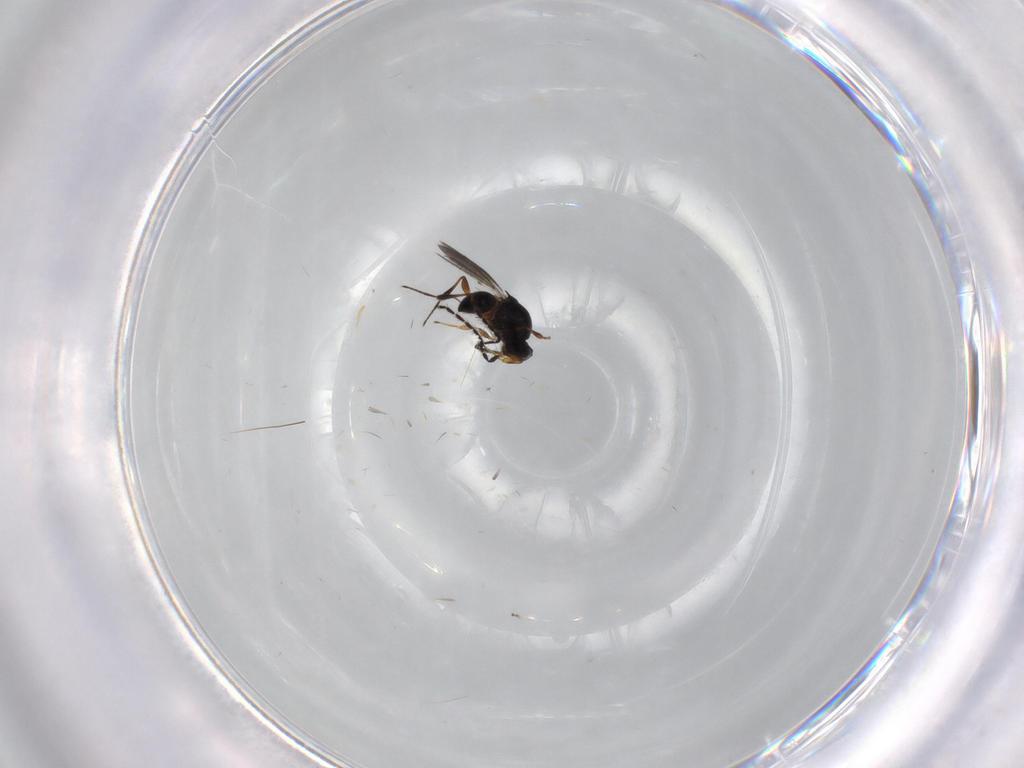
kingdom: Animalia
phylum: Arthropoda
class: Insecta
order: Hymenoptera
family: Platygastridae
